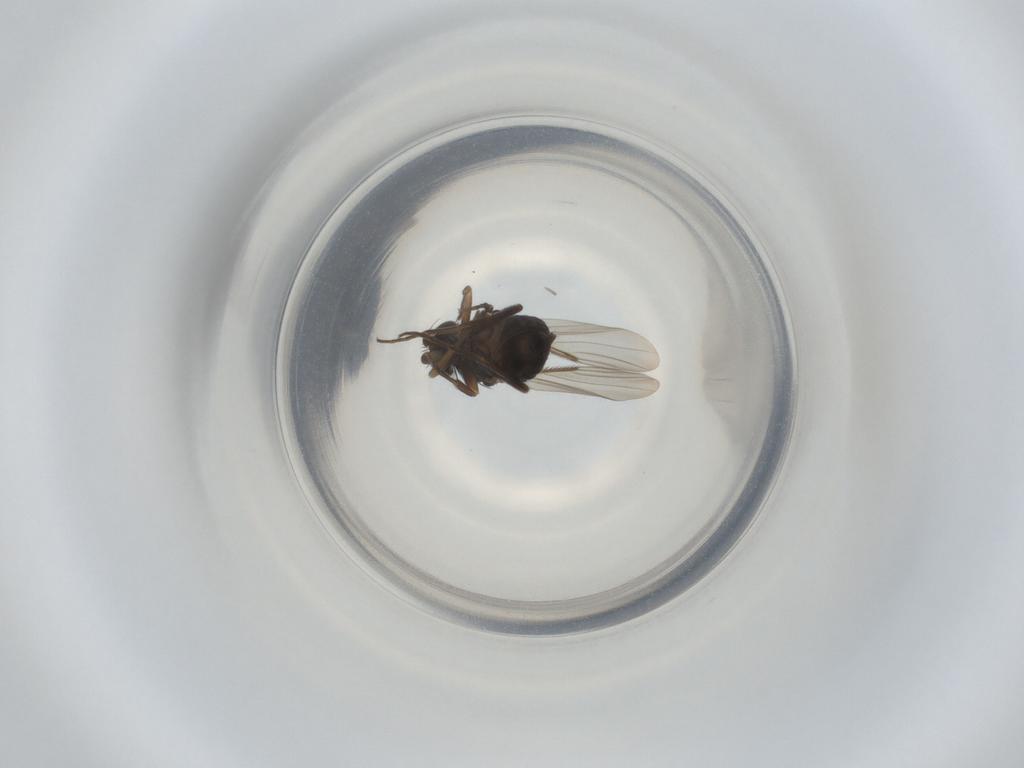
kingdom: Animalia
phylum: Arthropoda
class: Insecta
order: Diptera
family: Phoridae
